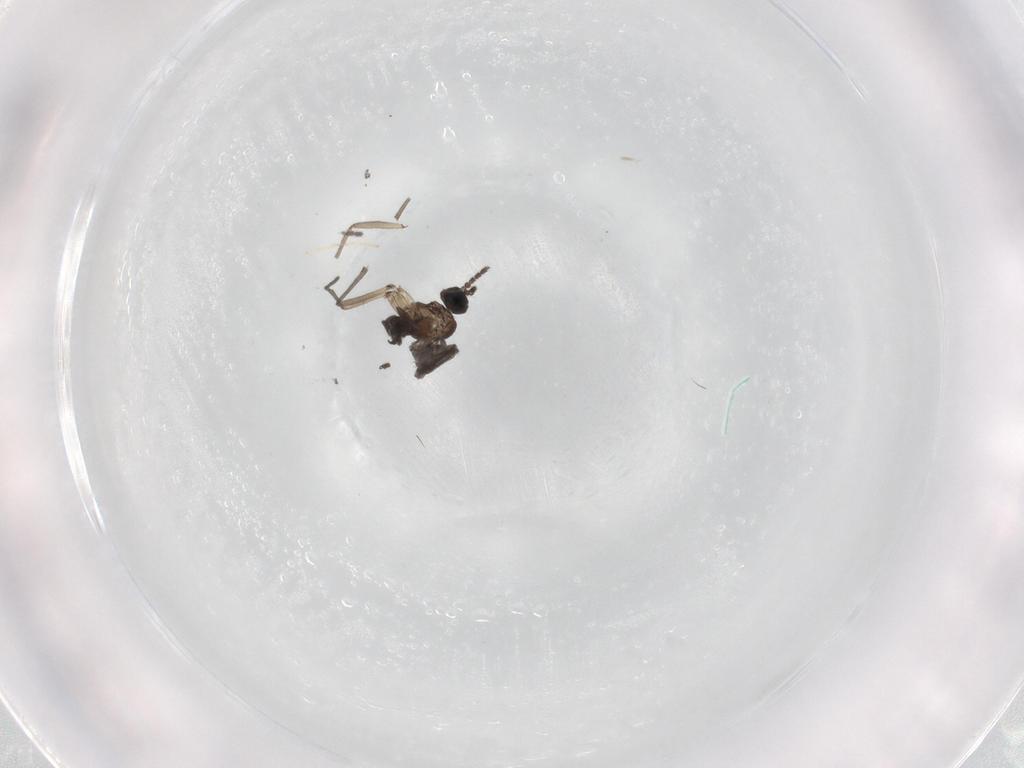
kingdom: Animalia
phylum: Arthropoda
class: Insecta
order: Diptera
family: Sciaridae
